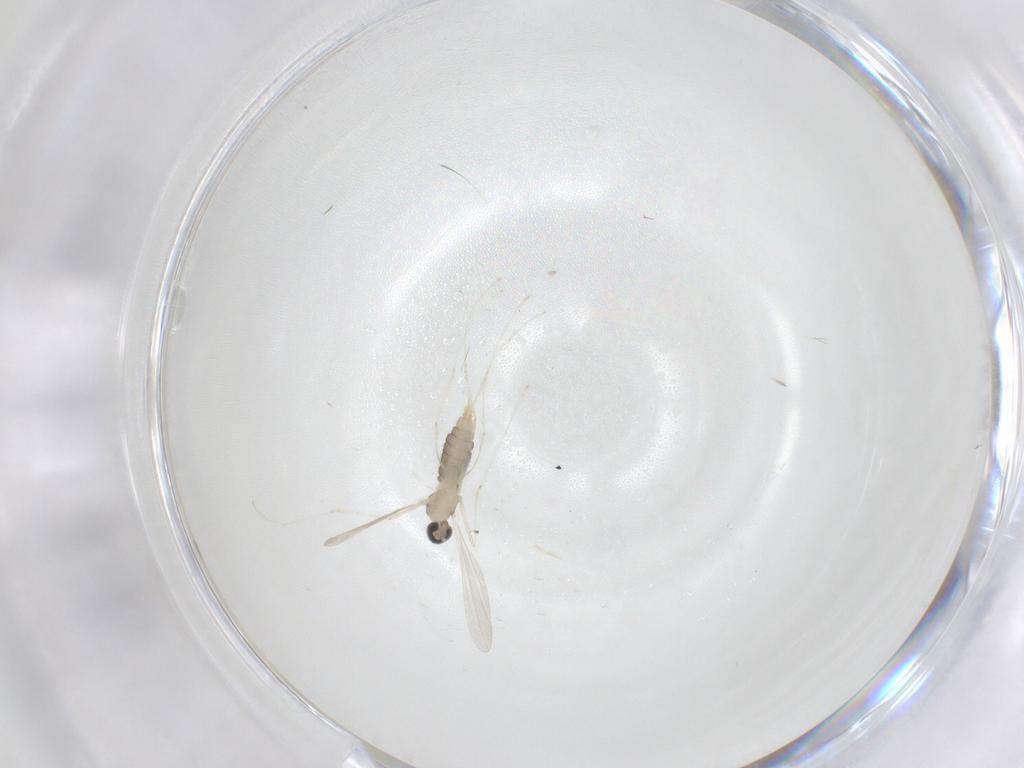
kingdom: Animalia
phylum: Arthropoda
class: Insecta
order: Diptera
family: Cecidomyiidae
